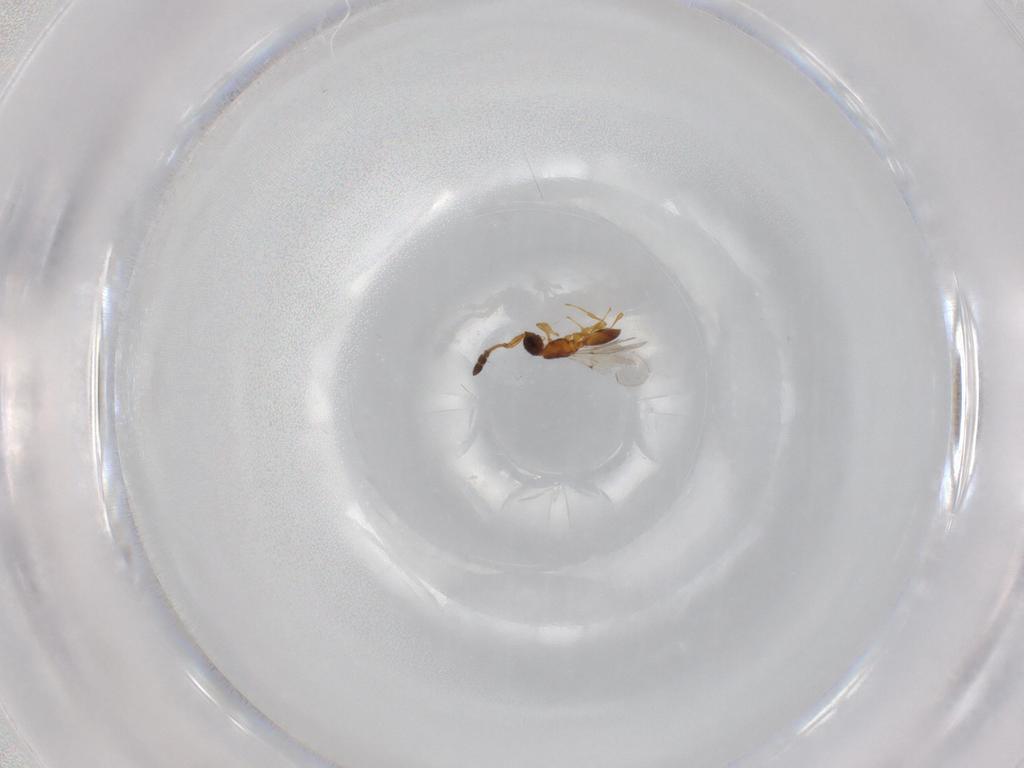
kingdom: Animalia
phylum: Arthropoda
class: Insecta
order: Hymenoptera
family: Diapriidae
